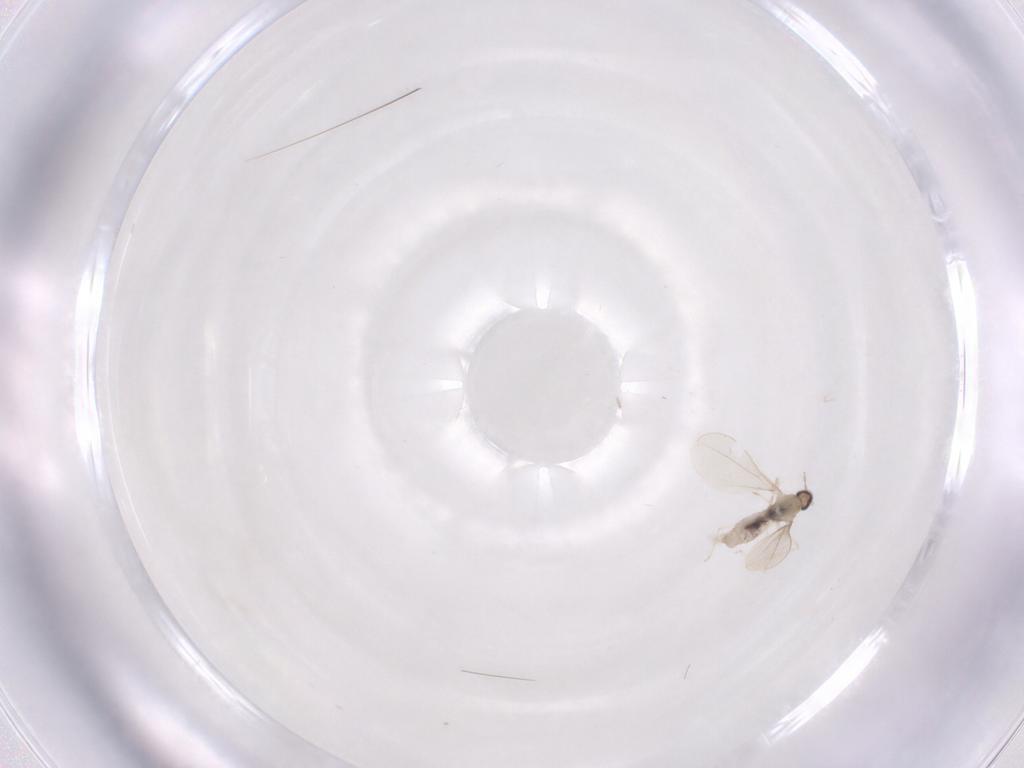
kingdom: Animalia
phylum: Arthropoda
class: Insecta
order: Diptera
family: Cecidomyiidae
